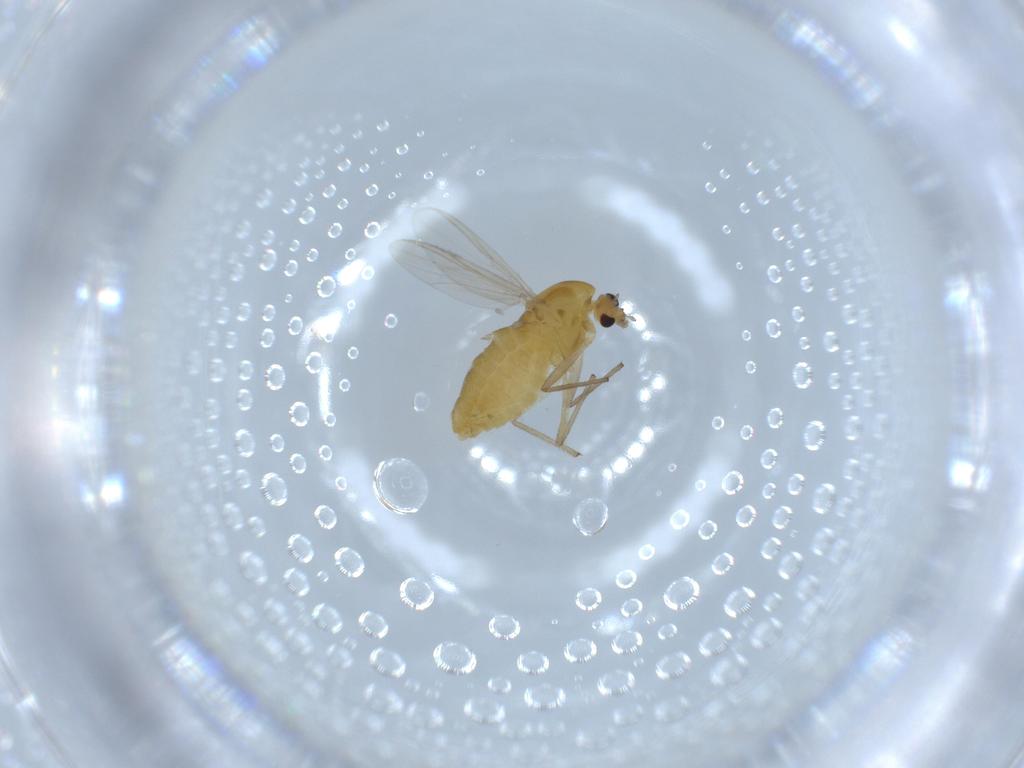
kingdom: Animalia
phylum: Arthropoda
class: Insecta
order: Diptera
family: Chironomidae
